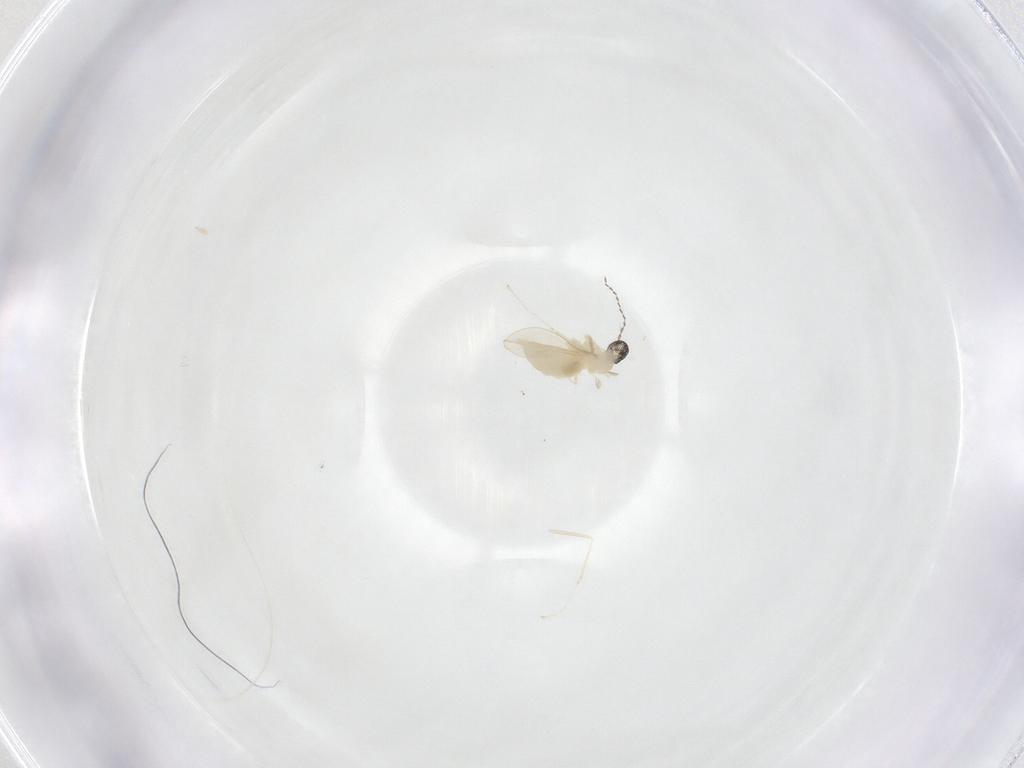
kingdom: Animalia
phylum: Arthropoda
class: Insecta
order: Diptera
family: Cecidomyiidae
